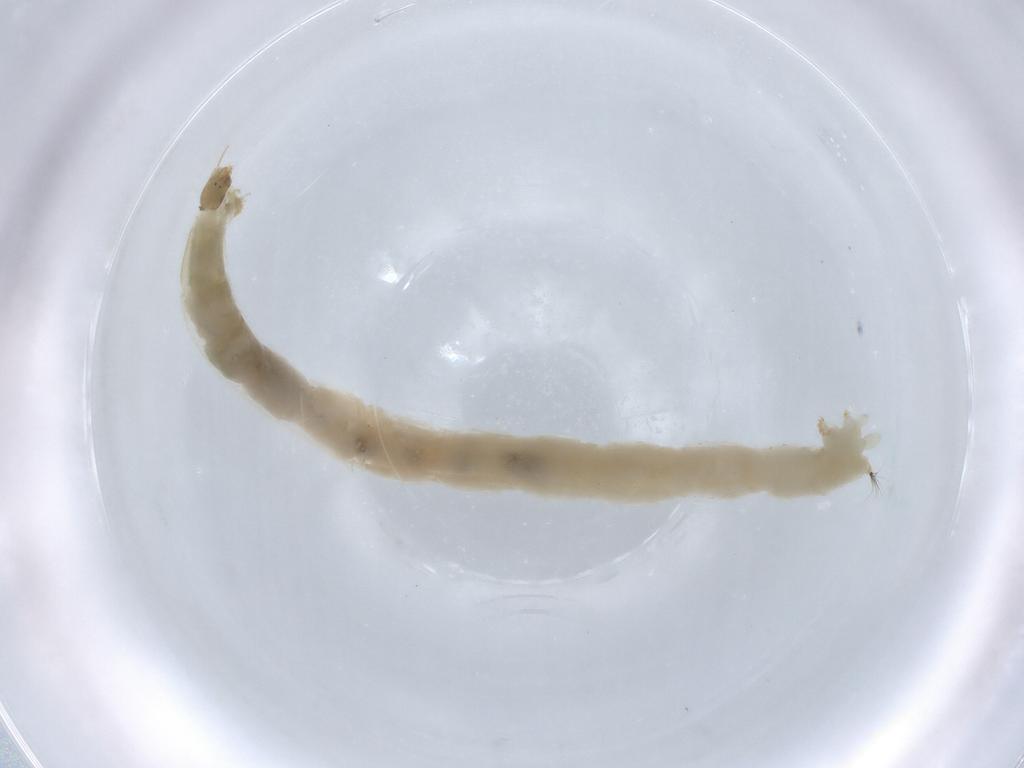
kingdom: Animalia
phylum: Arthropoda
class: Insecta
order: Diptera
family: Chironomidae
